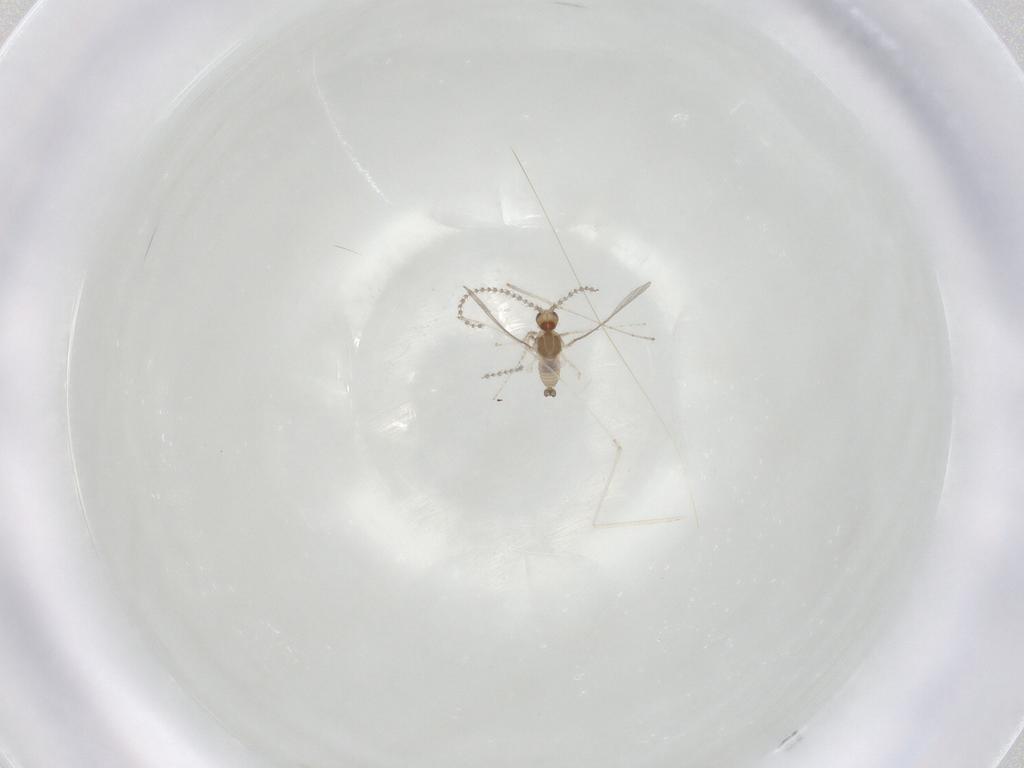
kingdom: Animalia
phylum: Arthropoda
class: Insecta
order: Diptera
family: Cecidomyiidae
